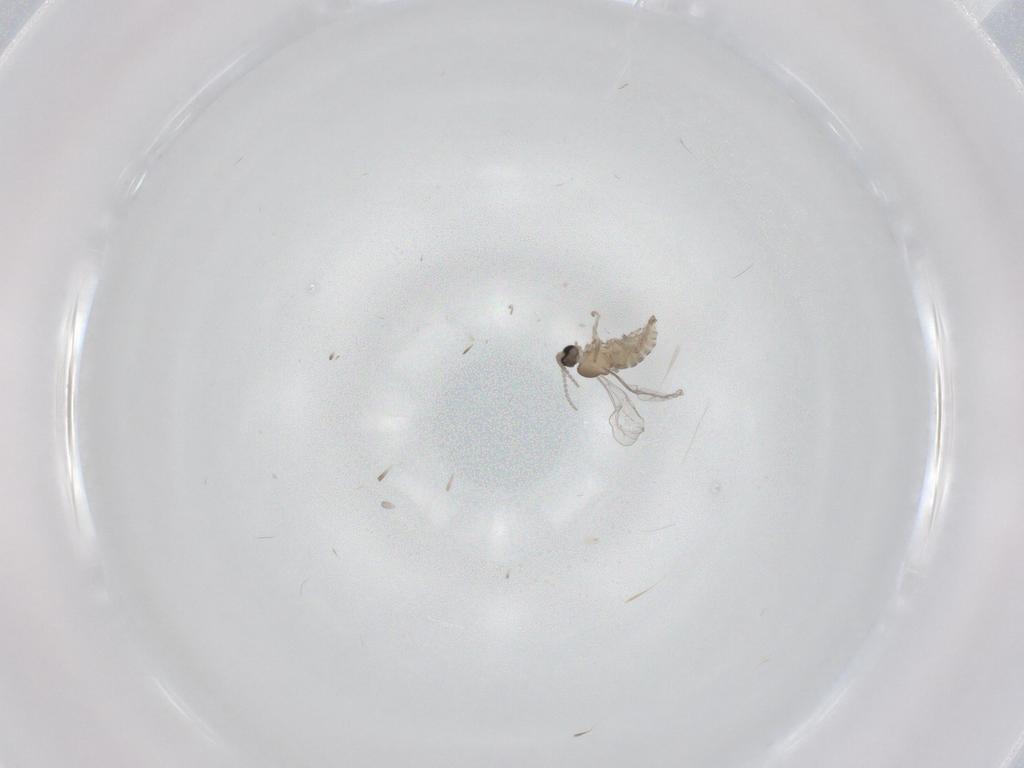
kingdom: Animalia
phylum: Arthropoda
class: Insecta
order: Diptera
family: Cecidomyiidae
